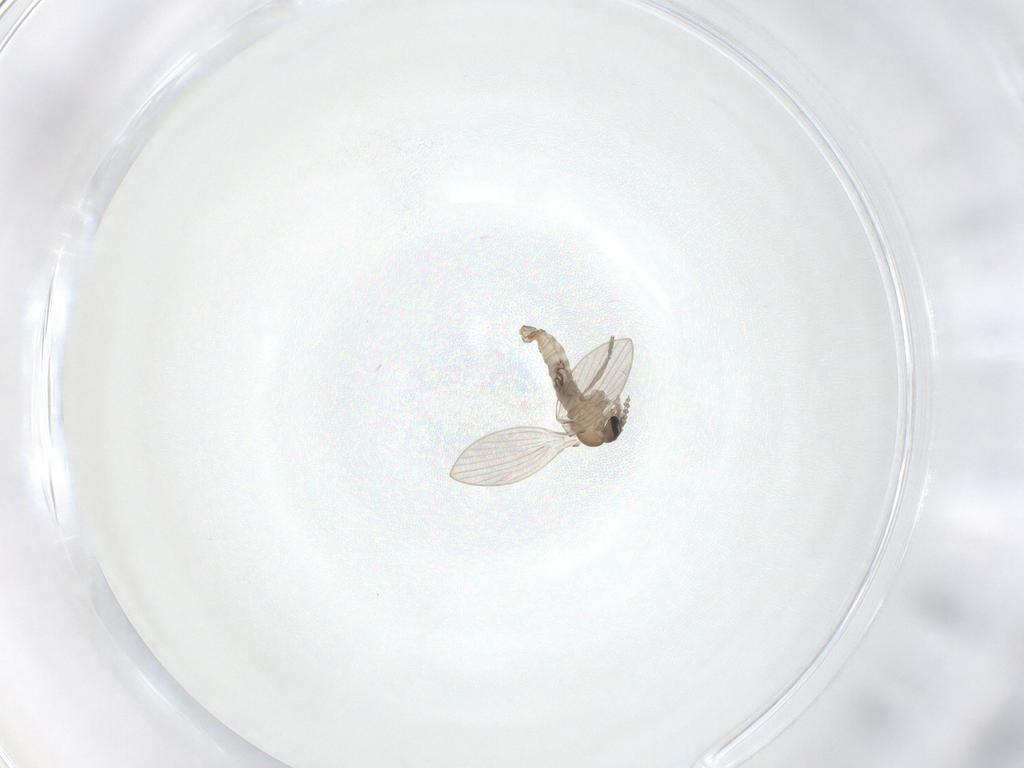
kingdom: Animalia
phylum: Arthropoda
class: Insecta
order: Diptera
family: Psychodidae
